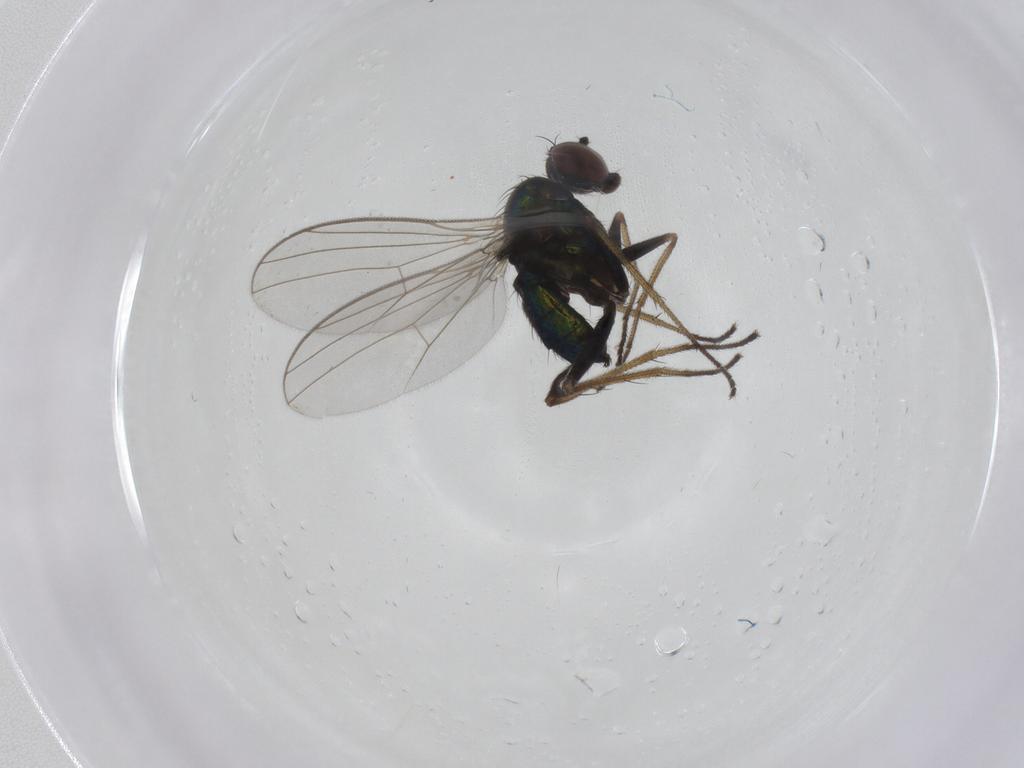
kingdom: Animalia
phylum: Arthropoda
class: Insecta
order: Diptera
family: Dolichopodidae
